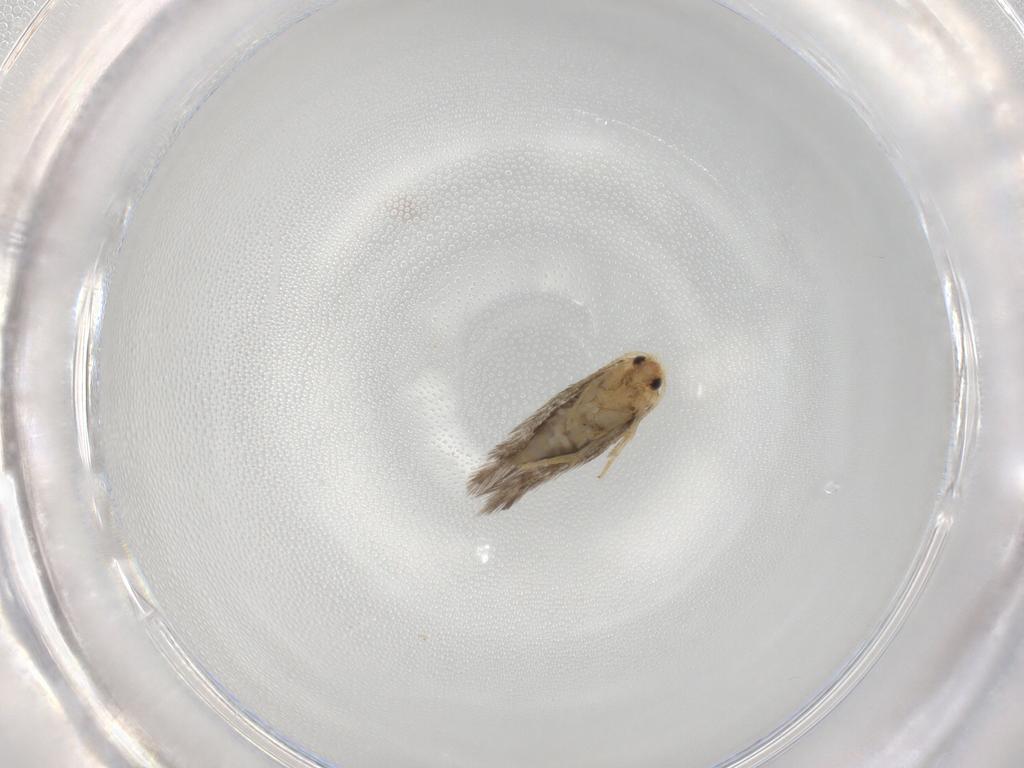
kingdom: Animalia
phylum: Arthropoda
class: Insecta
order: Lepidoptera
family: Nepticulidae
